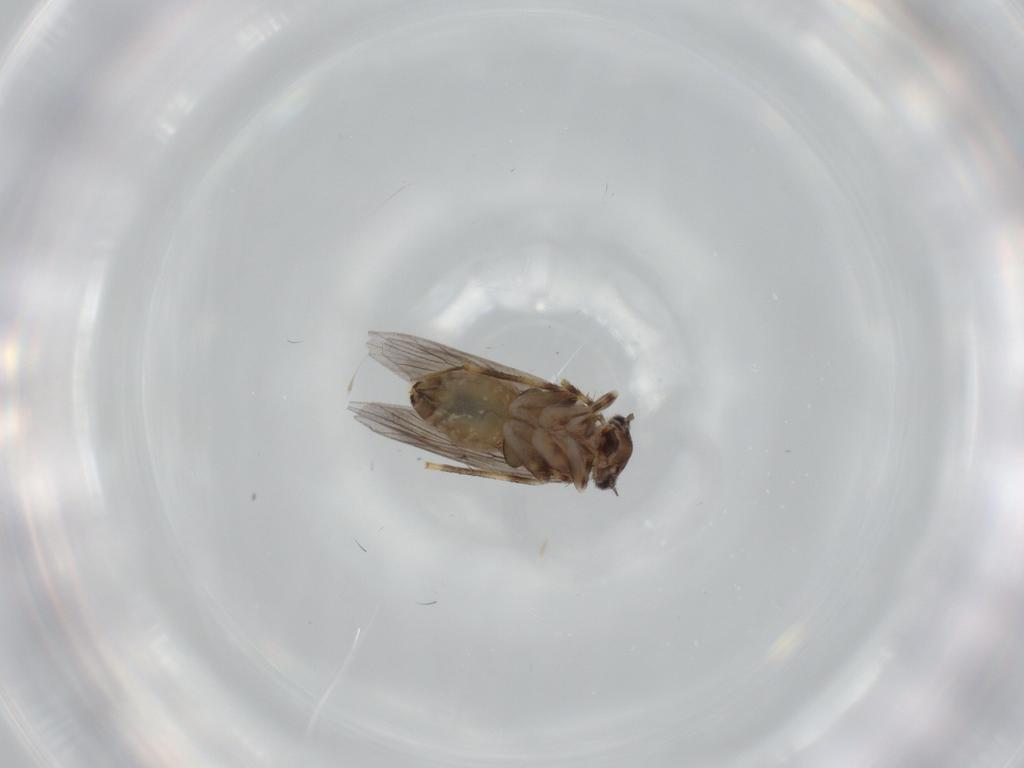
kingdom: Animalia
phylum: Arthropoda
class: Insecta
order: Psocodea
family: Lepidopsocidae
